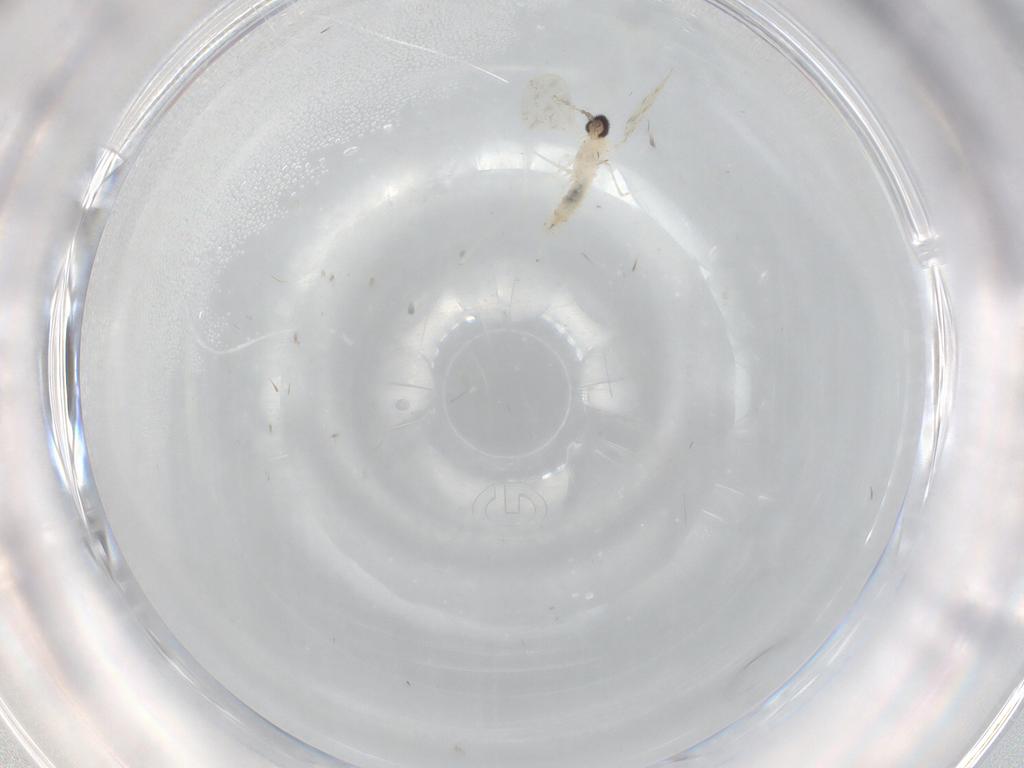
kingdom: Animalia
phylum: Arthropoda
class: Insecta
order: Diptera
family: Cecidomyiidae
